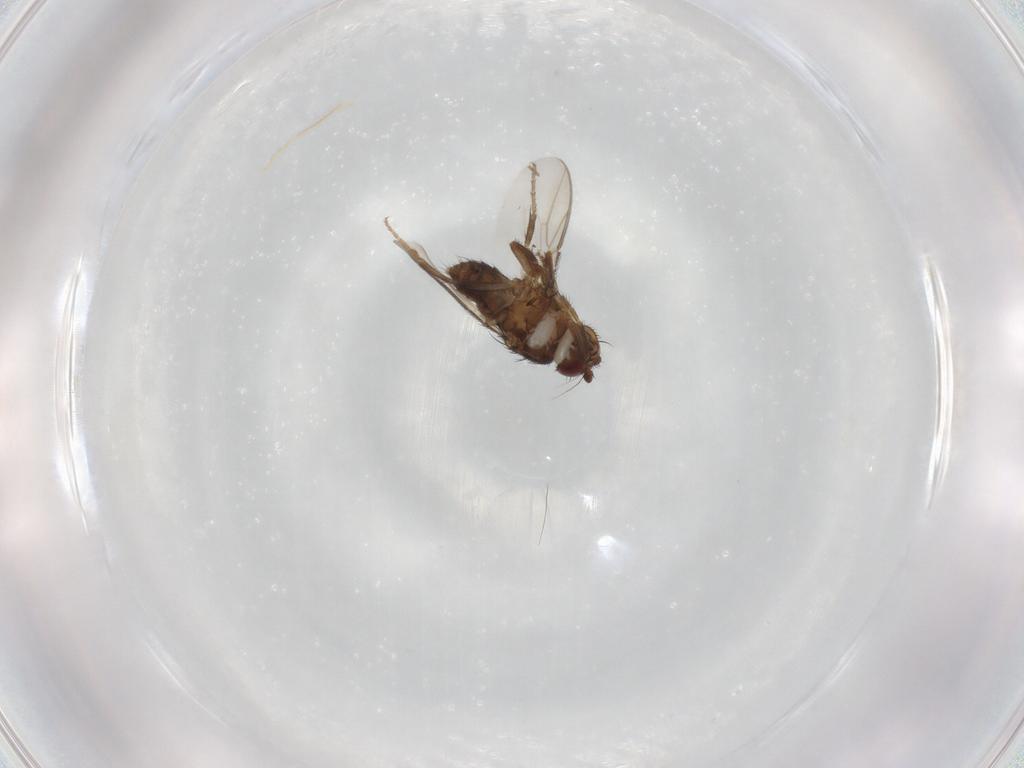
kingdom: Animalia
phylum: Arthropoda
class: Insecta
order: Diptera
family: Sphaeroceridae
